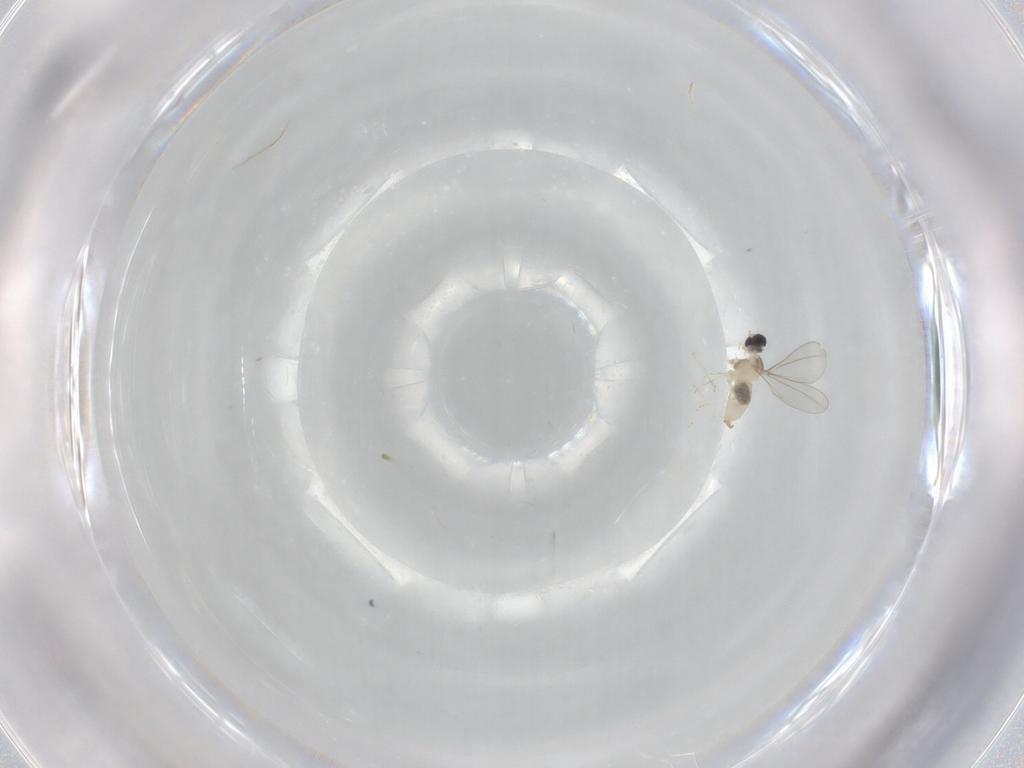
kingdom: Animalia
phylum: Arthropoda
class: Insecta
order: Diptera
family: Cecidomyiidae
